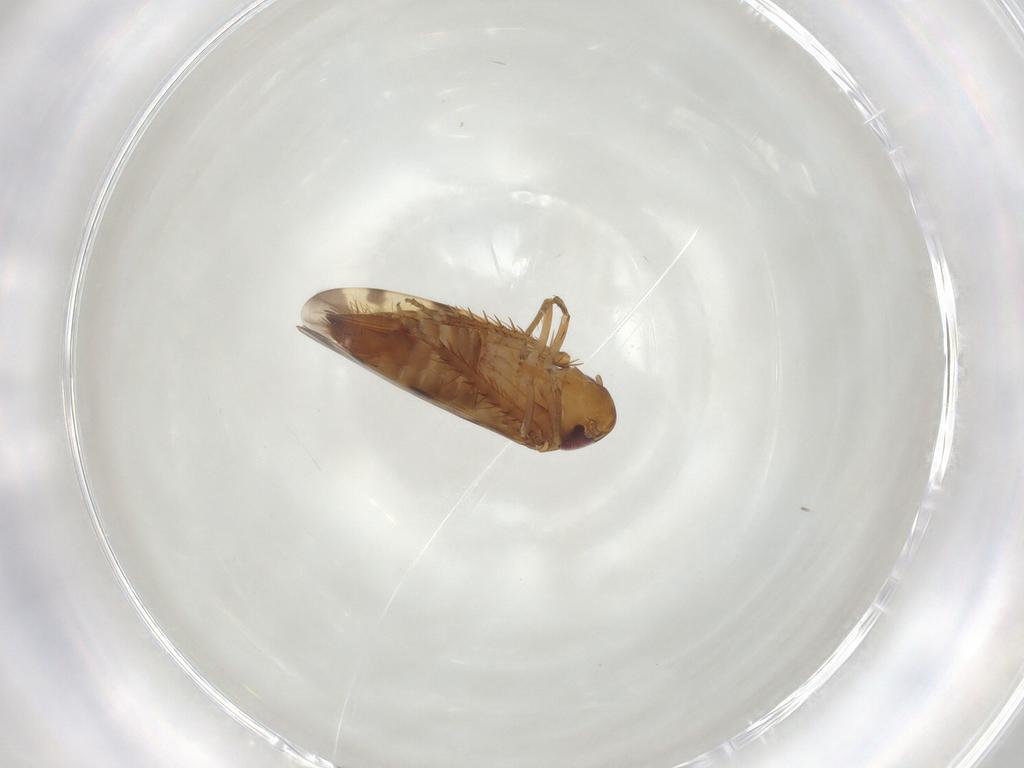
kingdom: Animalia
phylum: Arthropoda
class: Insecta
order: Hemiptera
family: Cicadellidae
